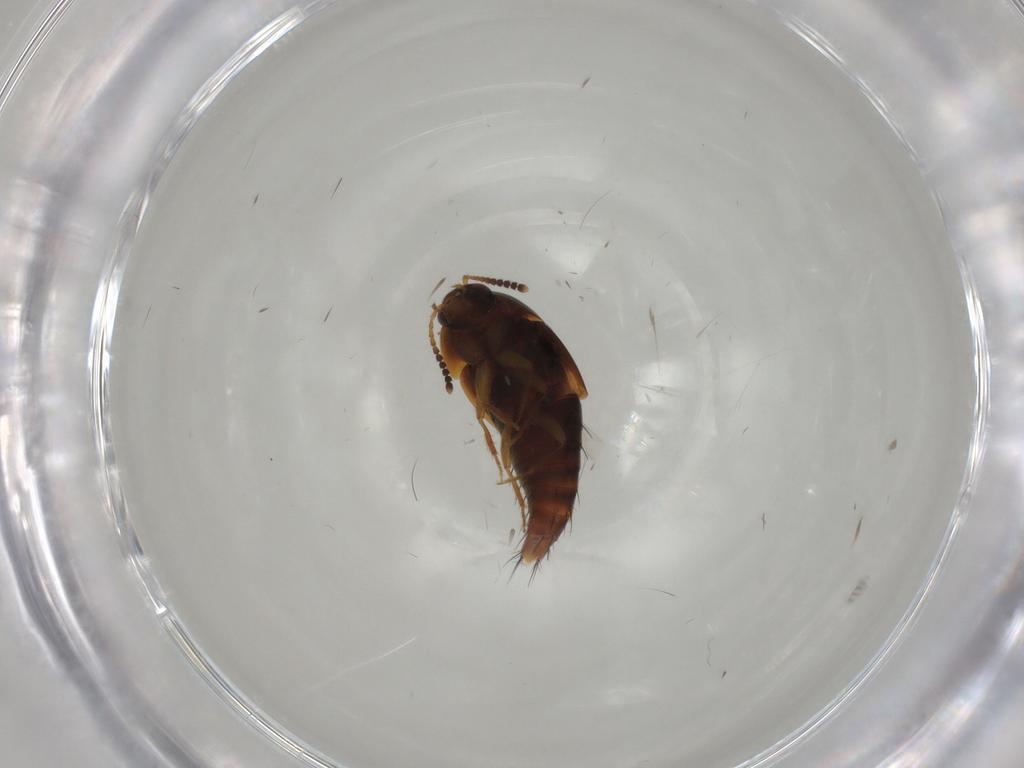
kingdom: Animalia
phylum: Arthropoda
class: Insecta
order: Coleoptera
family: Staphylinidae
